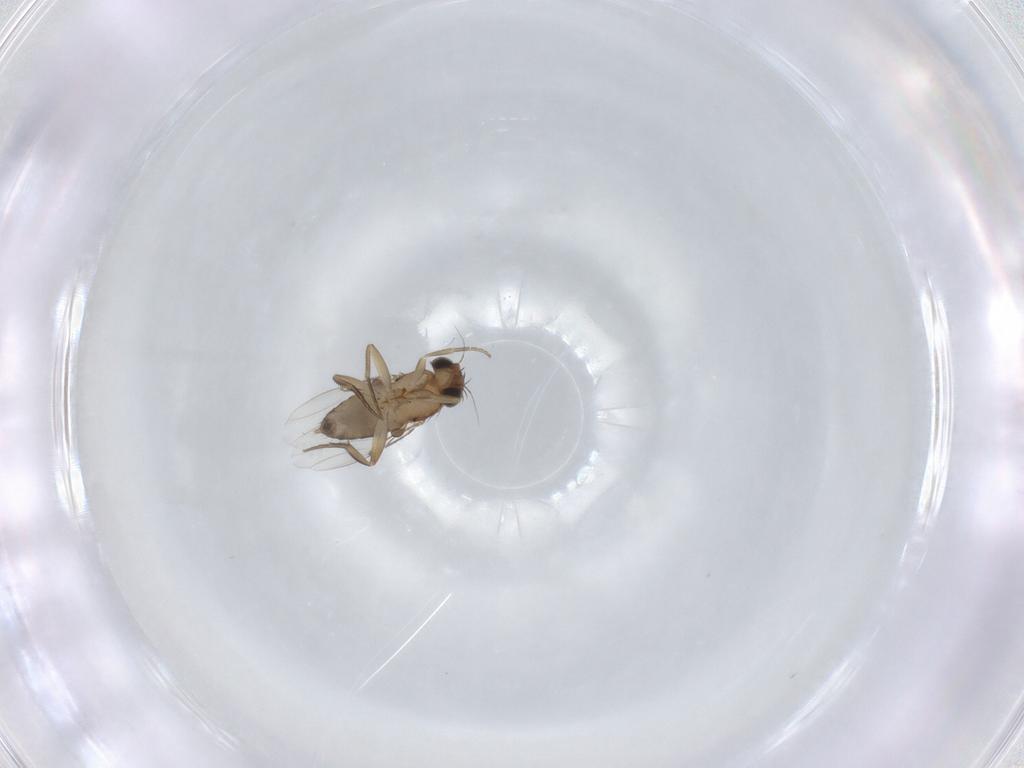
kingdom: Animalia
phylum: Arthropoda
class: Insecta
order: Diptera
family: Phoridae
